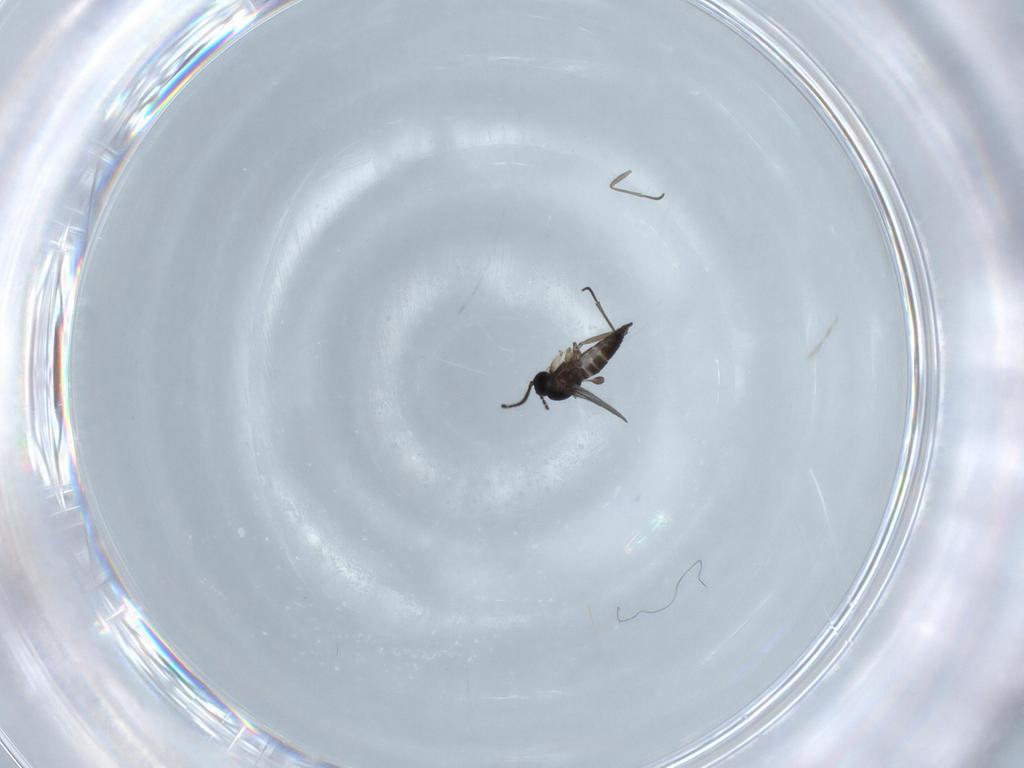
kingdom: Animalia
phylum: Arthropoda
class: Insecta
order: Diptera
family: Sciaridae
